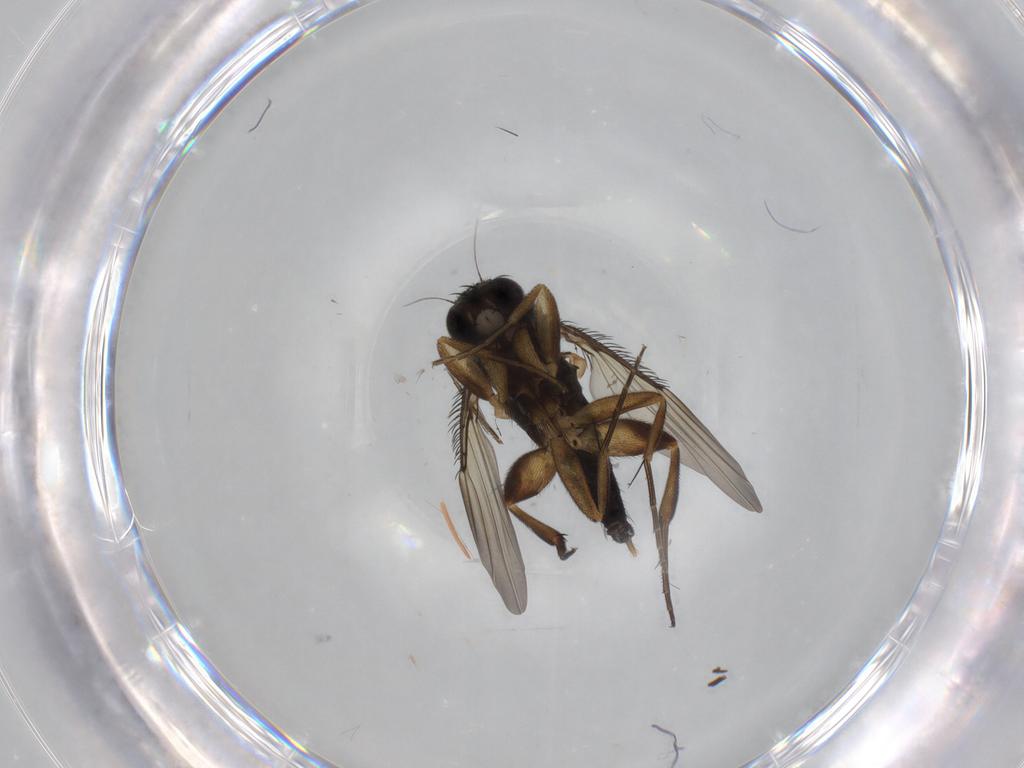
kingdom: Animalia
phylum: Arthropoda
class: Insecta
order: Diptera
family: Phoridae
